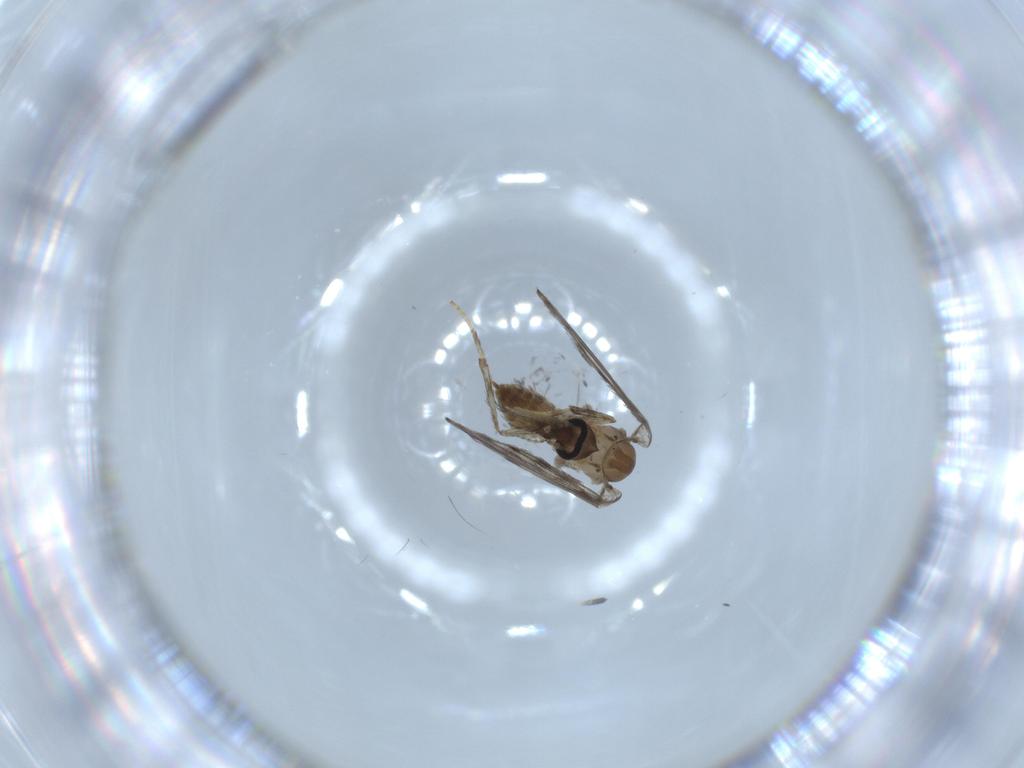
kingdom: Animalia
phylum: Arthropoda
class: Insecta
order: Diptera
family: Psychodidae
